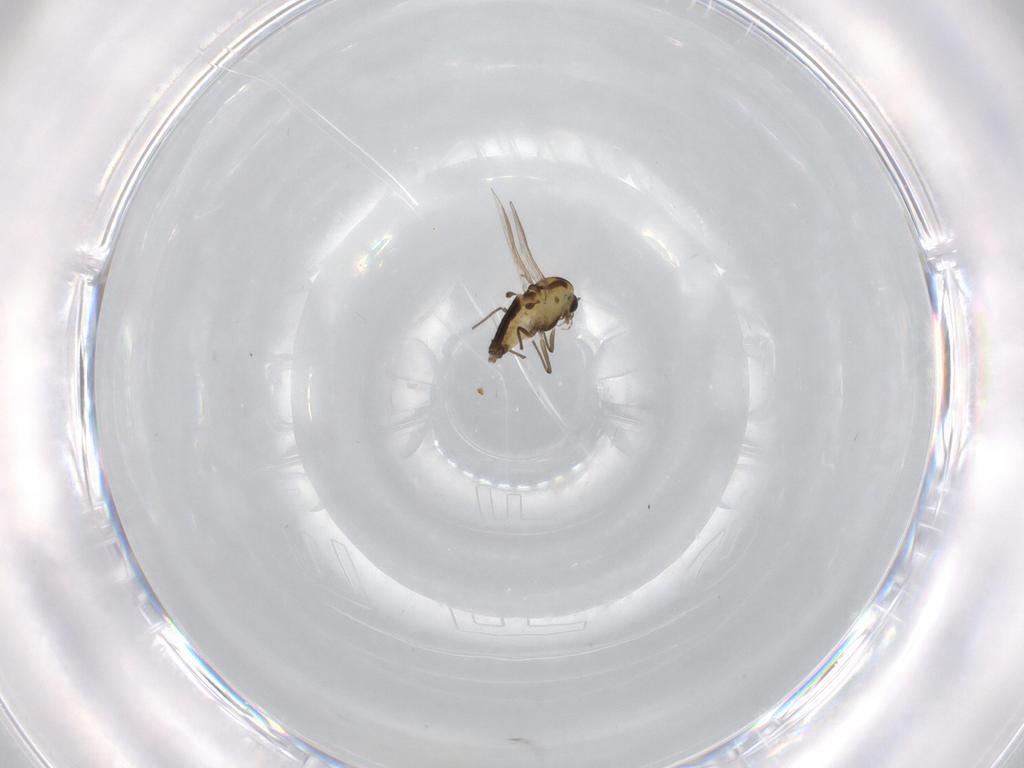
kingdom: Animalia
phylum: Arthropoda
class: Insecta
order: Diptera
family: Chironomidae
